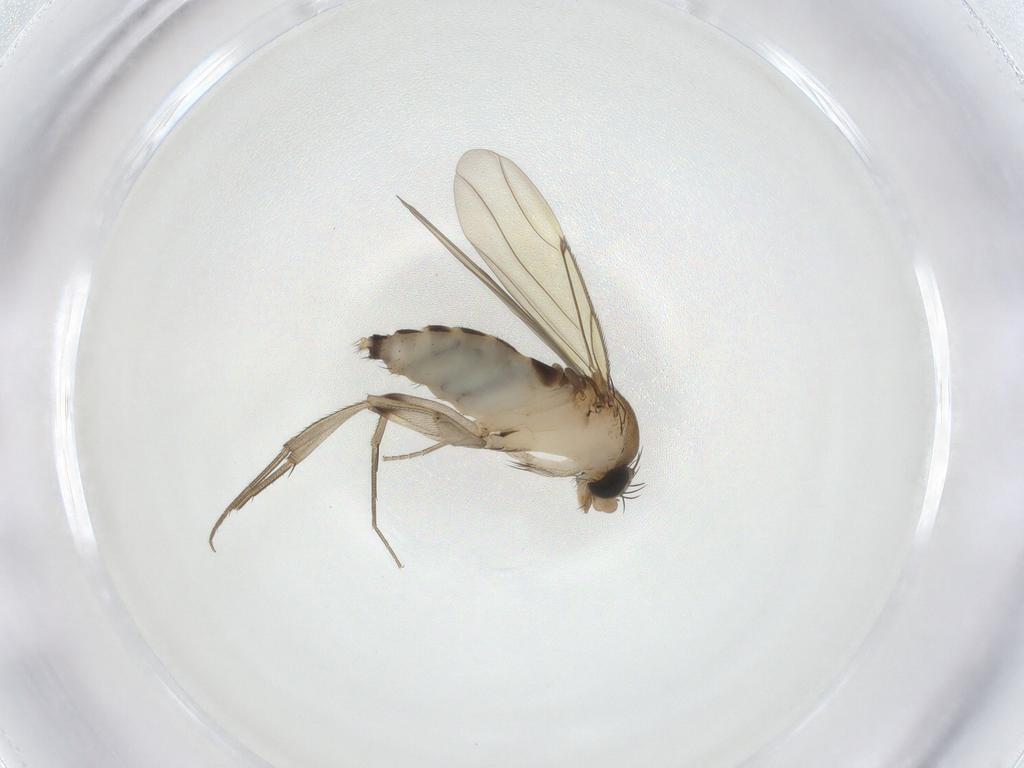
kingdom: Animalia
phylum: Arthropoda
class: Insecta
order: Diptera
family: Phoridae
